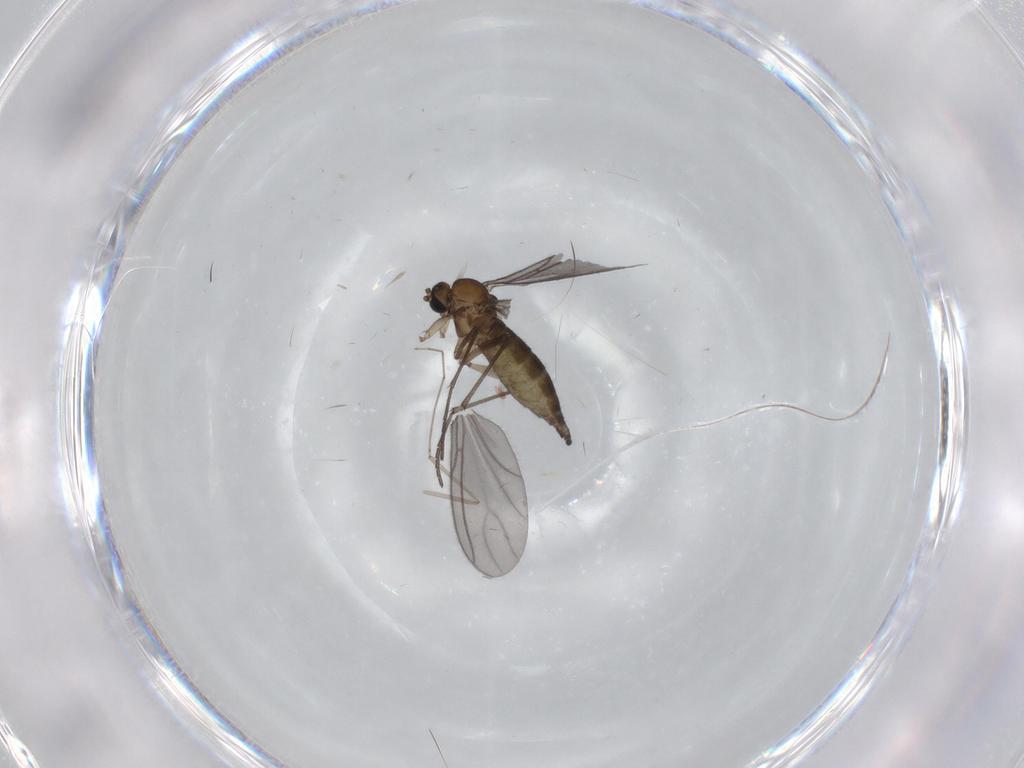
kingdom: Animalia
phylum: Arthropoda
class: Insecta
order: Diptera
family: Sciaridae
